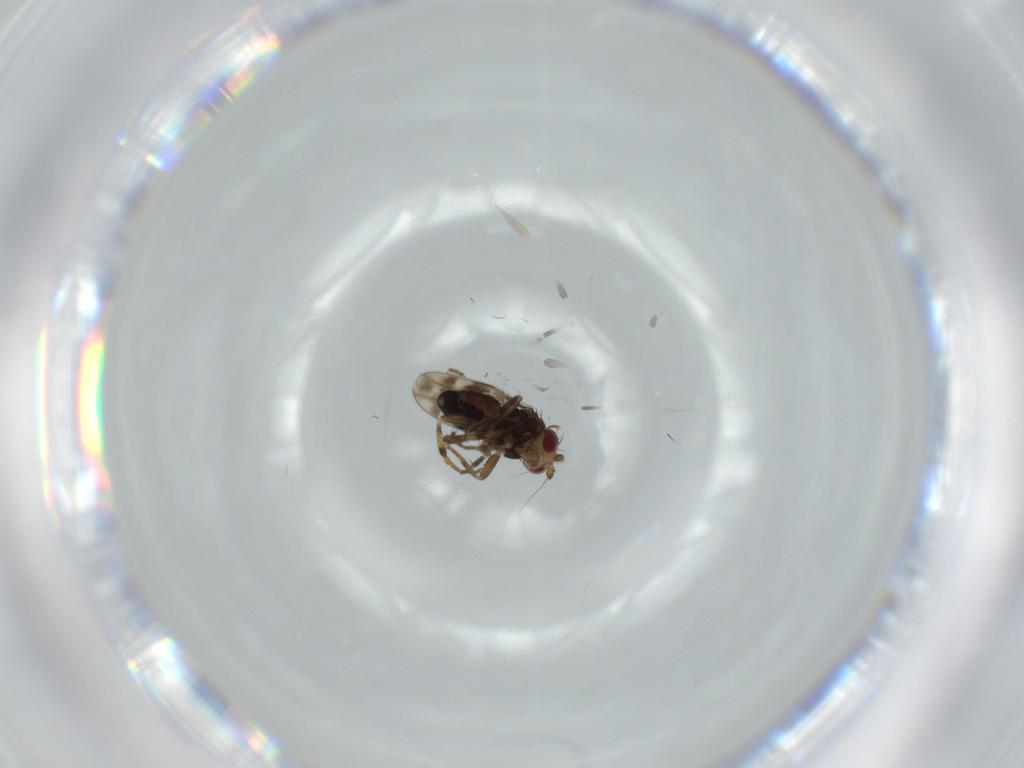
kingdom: Animalia
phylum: Arthropoda
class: Insecta
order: Diptera
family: Sphaeroceridae
